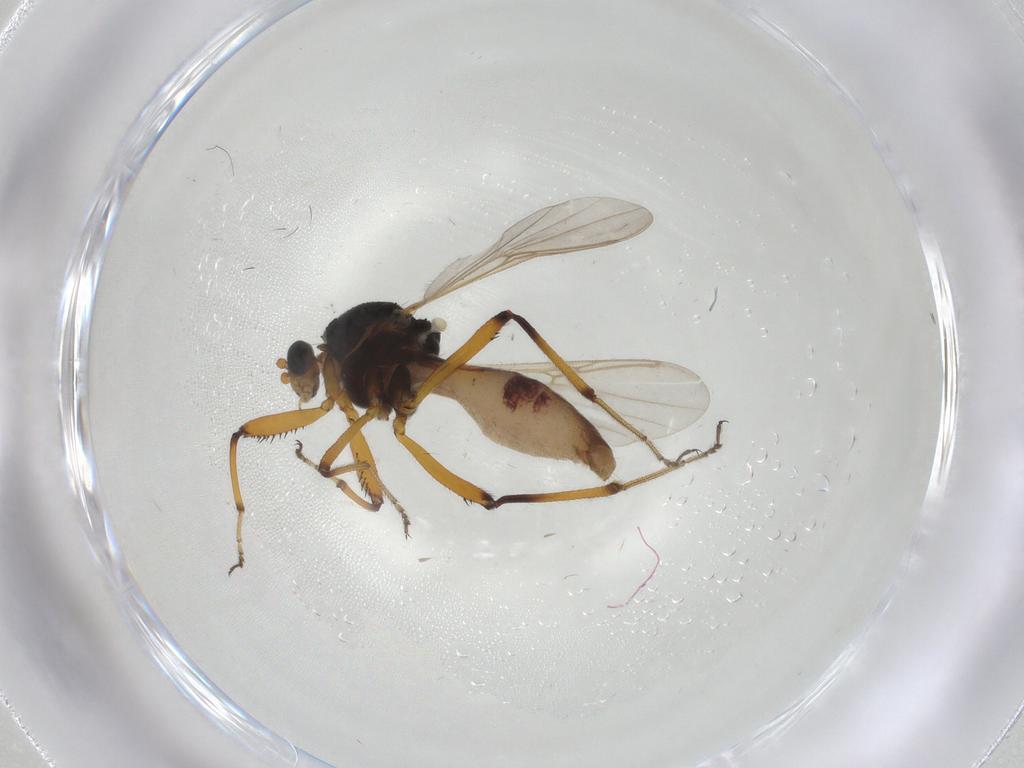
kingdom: Animalia
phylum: Arthropoda
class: Insecta
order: Diptera
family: Ceratopogonidae
